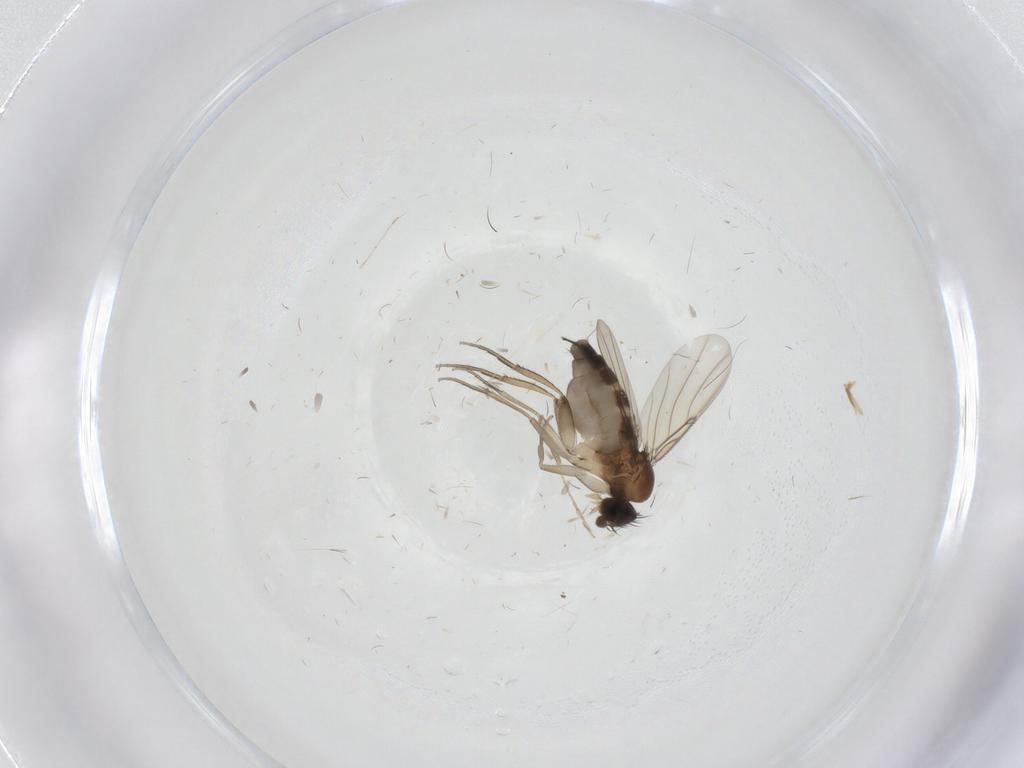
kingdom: Animalia
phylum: Arthropoda
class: Insecta
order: Diptera
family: Phoridae
